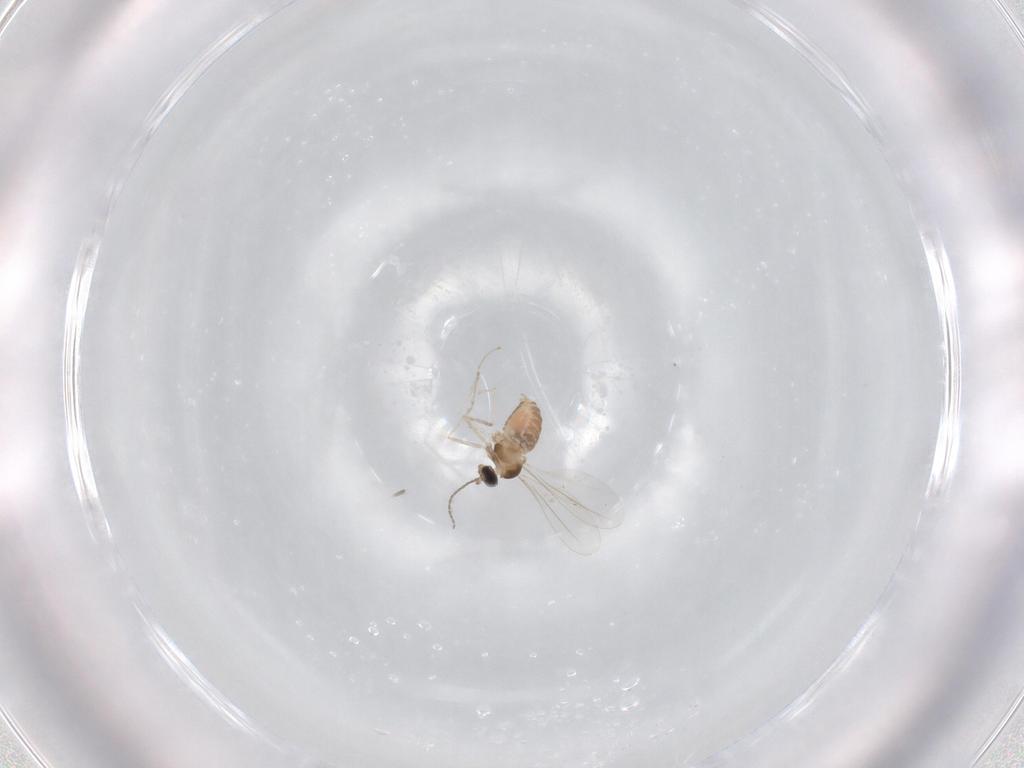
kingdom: Animalia
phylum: Arthropoda
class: Insecta
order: Diptera
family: Cecidomyiidae
